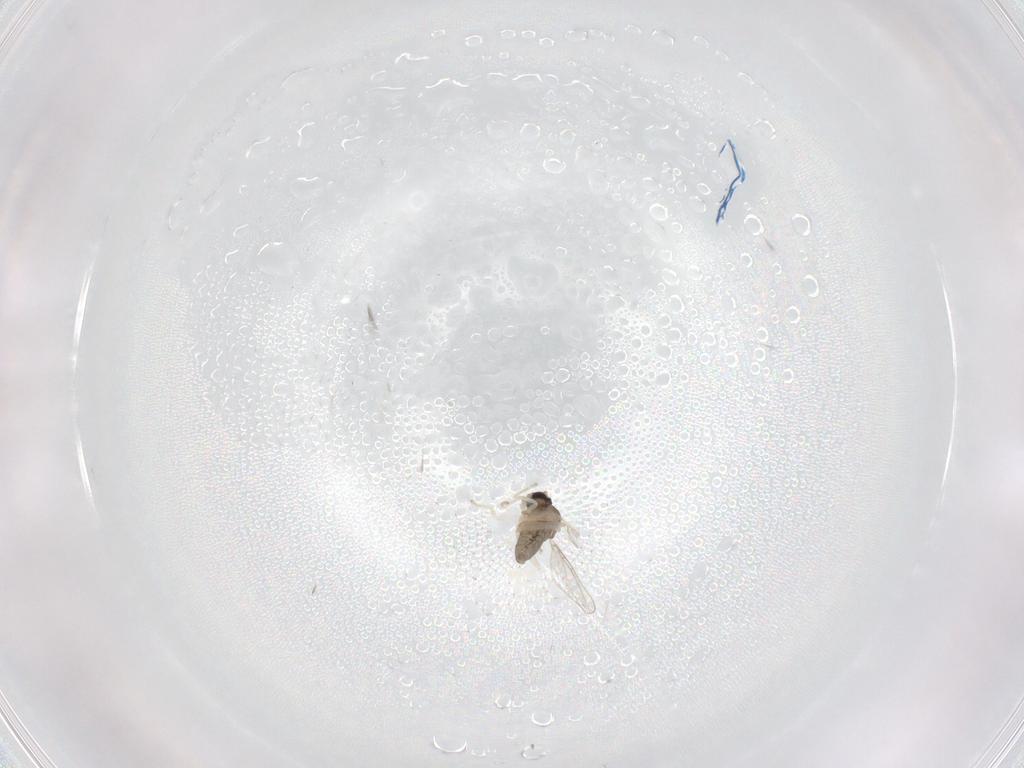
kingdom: Animalia
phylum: Arthropoda
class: Insecta
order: Diptera
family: Cecidomyiidae
